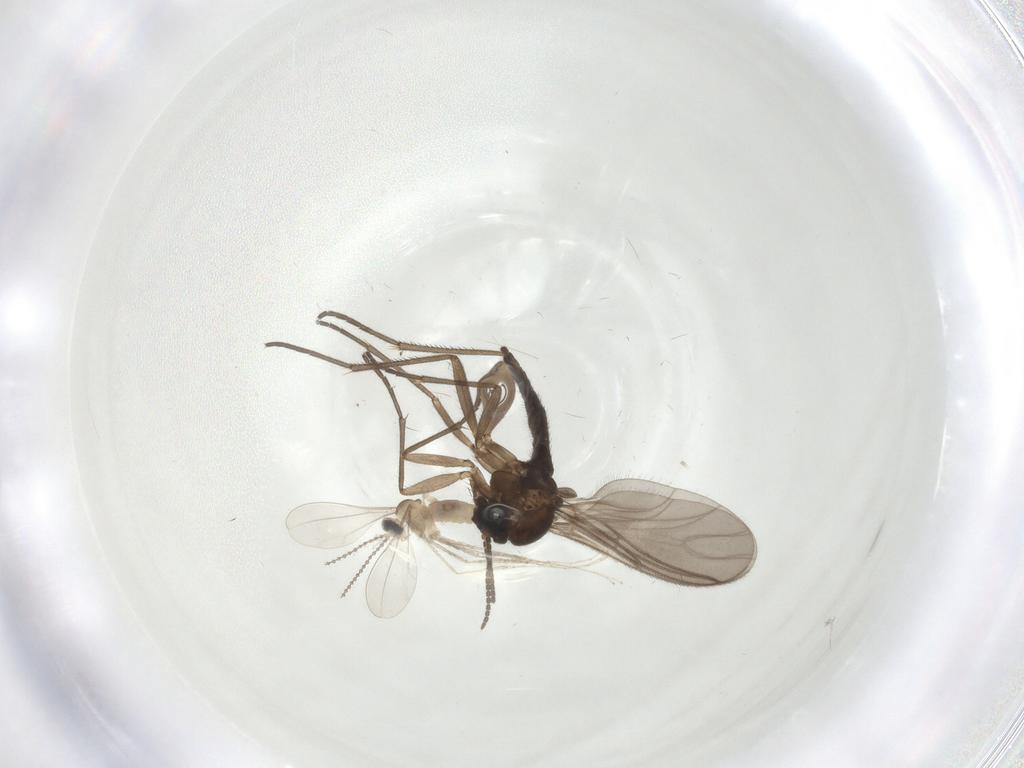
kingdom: Animalia
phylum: Arthropoda
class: Insecta
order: Diptera
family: Sciaridae
